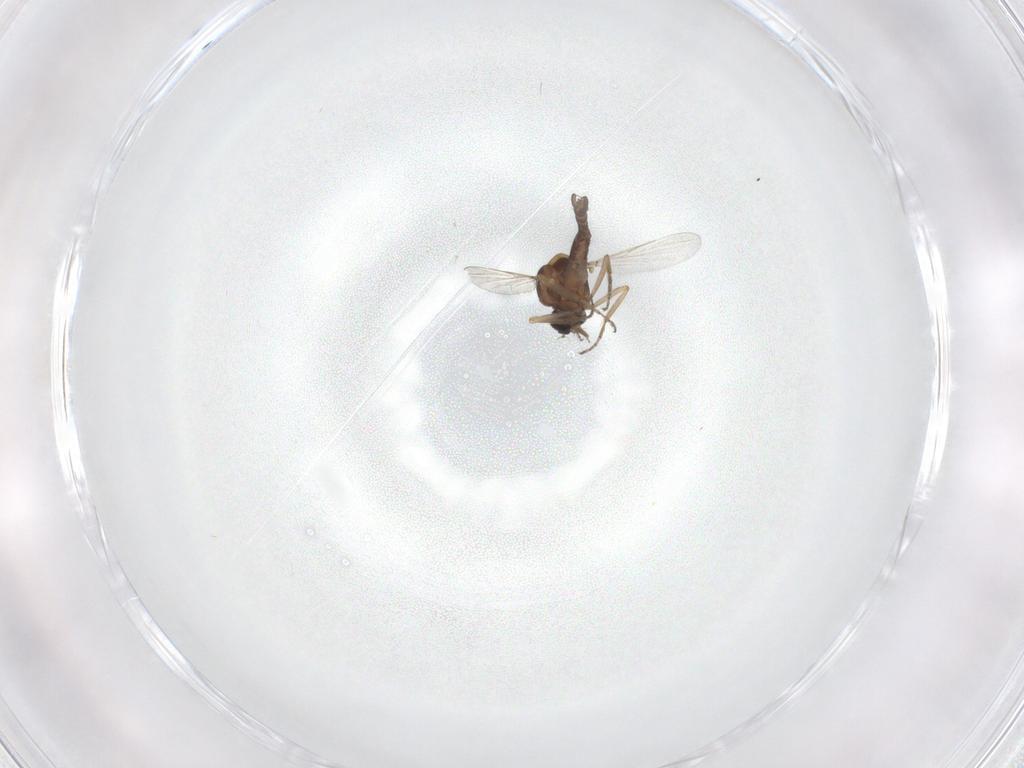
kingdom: Animalia
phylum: Arthropoda
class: Insecta
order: Diptera
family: Ceratopogonidae
